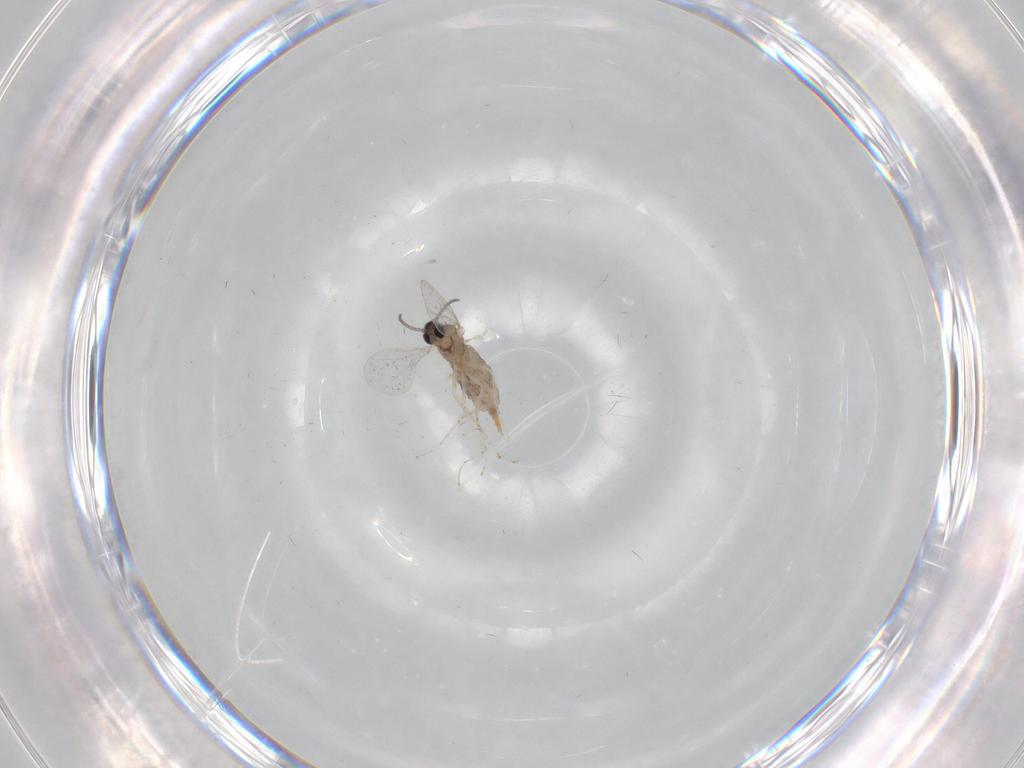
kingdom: Animalia
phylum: Arthropoda
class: Insecta
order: Diptera
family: Cecidomyiidae
